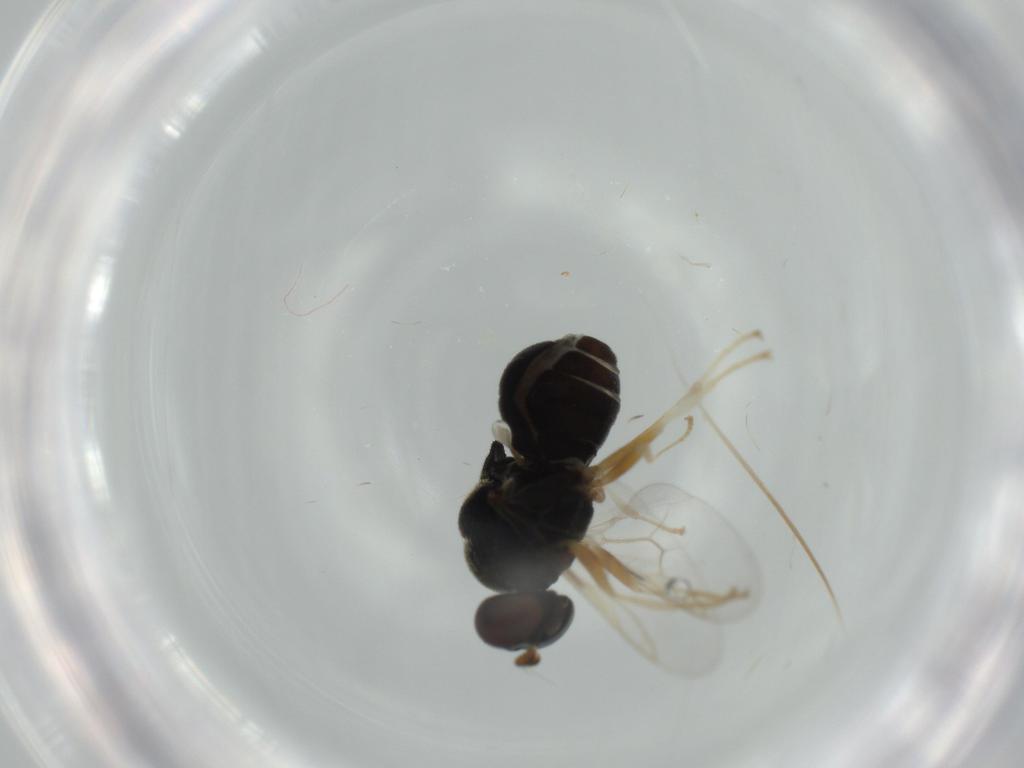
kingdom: Animalia
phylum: Arthropoda
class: Insecta
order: Diptera
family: Stratiomyidae
